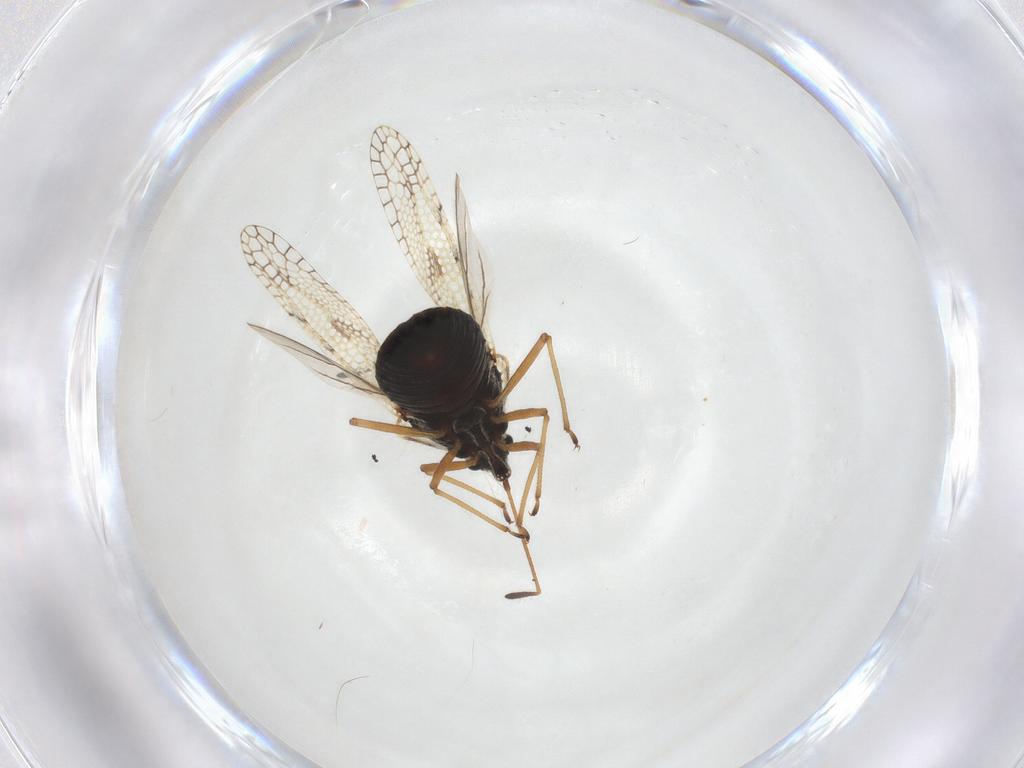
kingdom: Animalia
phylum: Arthropoda
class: Insecta
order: Hemiptera
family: Tingidae
